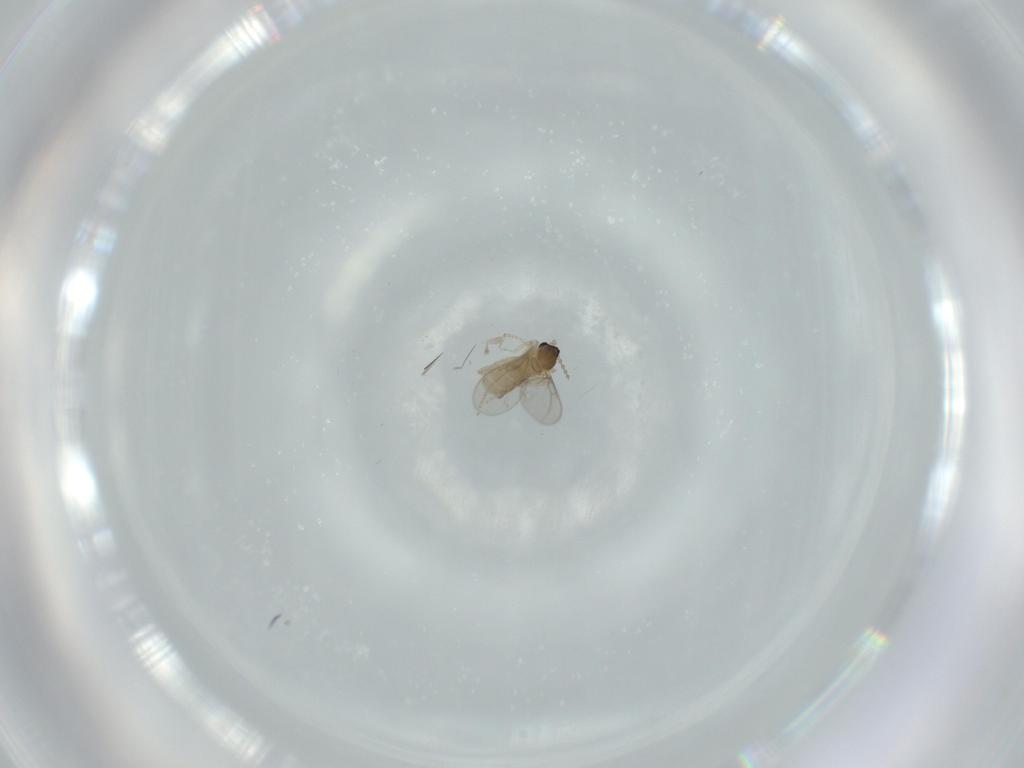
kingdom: Animalia
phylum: Arthropoda
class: Insecta
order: Diptera
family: Cecidomyiidae
